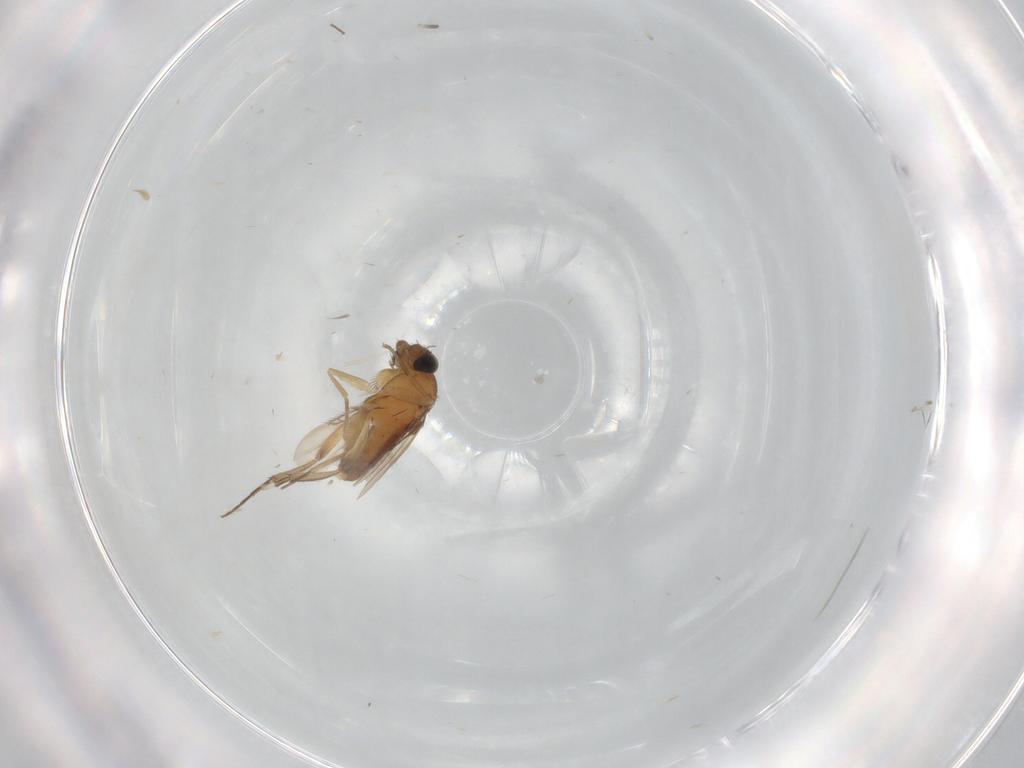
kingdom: Animalia
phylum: Arthropoda
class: Insecta
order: Diptera
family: Phoridae
